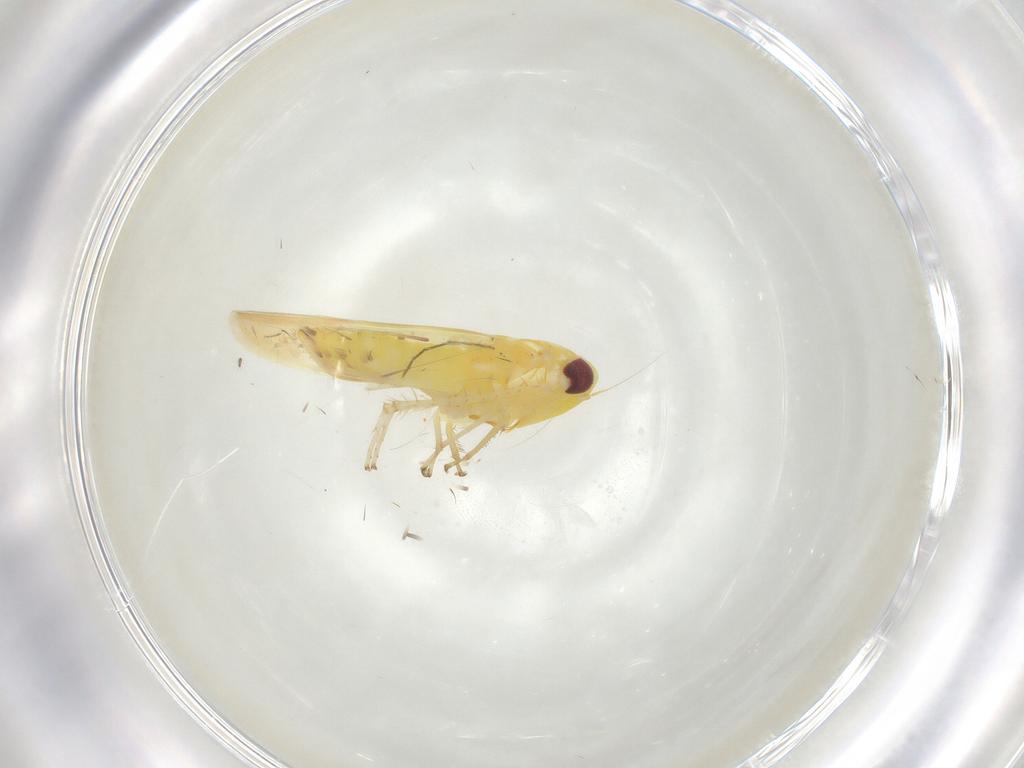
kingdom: Animalia
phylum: Arthropoda
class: Insecta
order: Hemiptera
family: Cicadellidae
